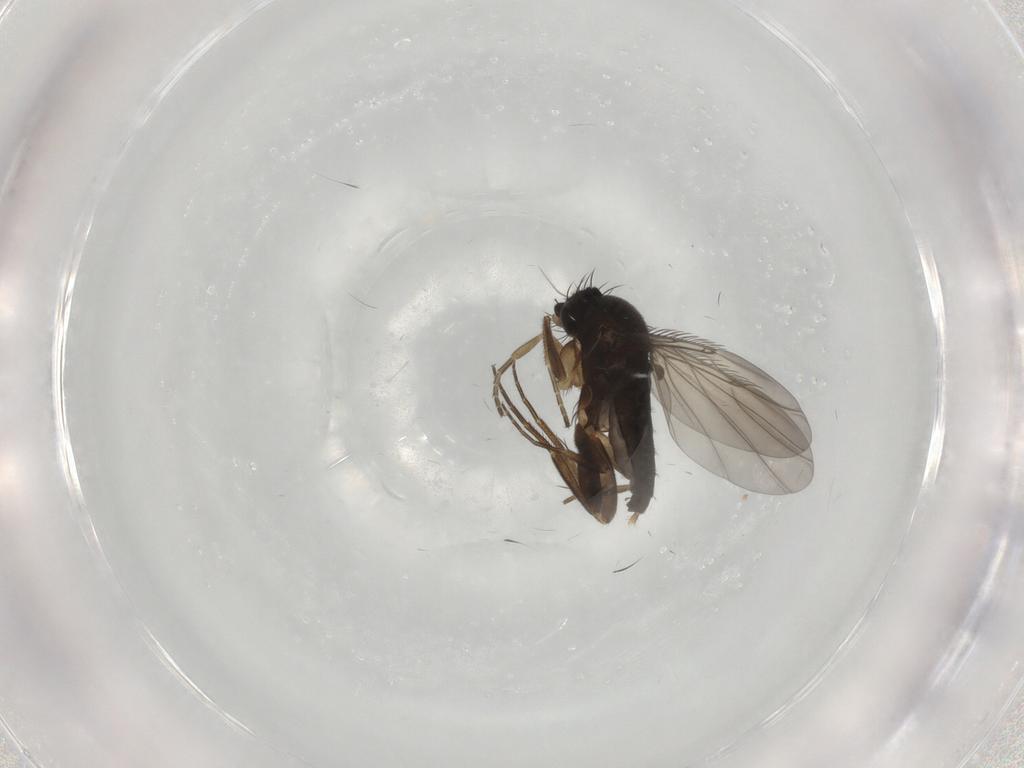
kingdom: Animalia
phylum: Arthropoda
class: Insecta
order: Diptera
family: Phoridae
